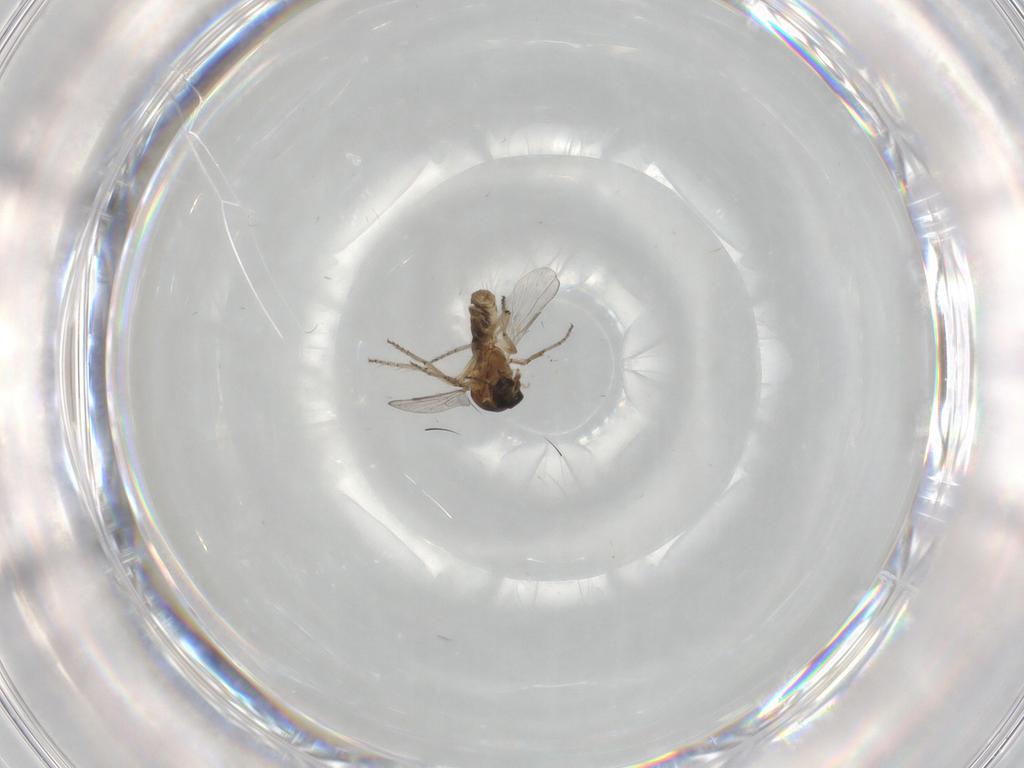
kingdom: Animalia
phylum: Arthropoda
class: Insecta
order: Diptera
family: Ceratopogonidae
